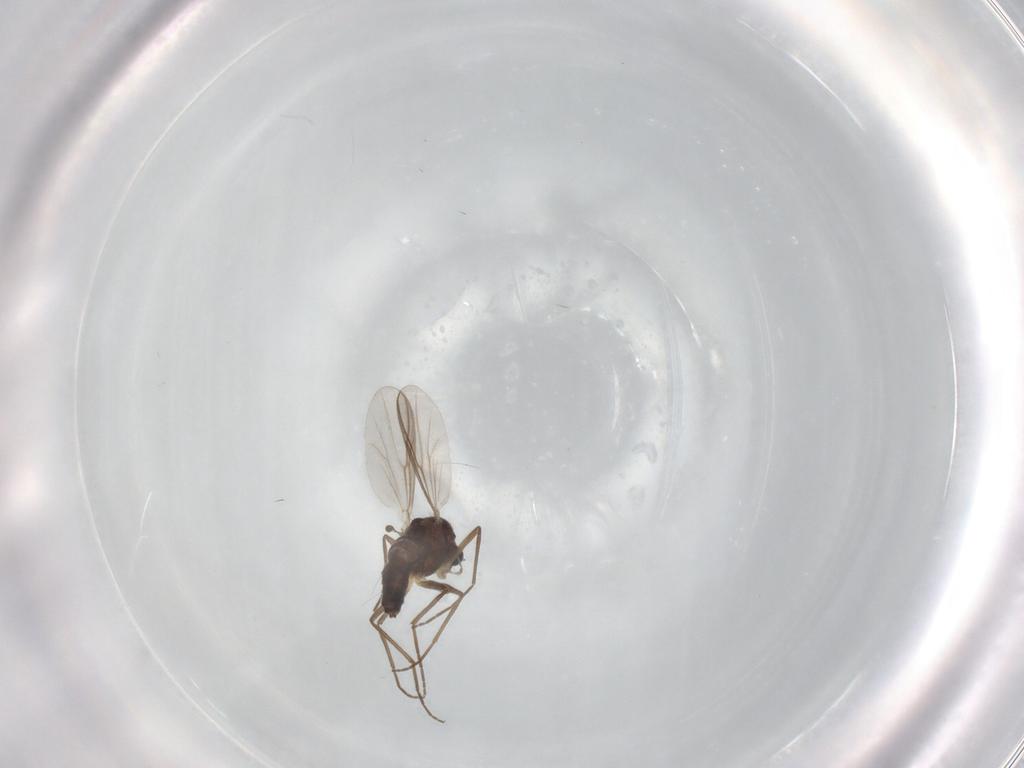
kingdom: Animalia
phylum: Arthropoda
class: Insecta
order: Diptera
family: Chironomidae
